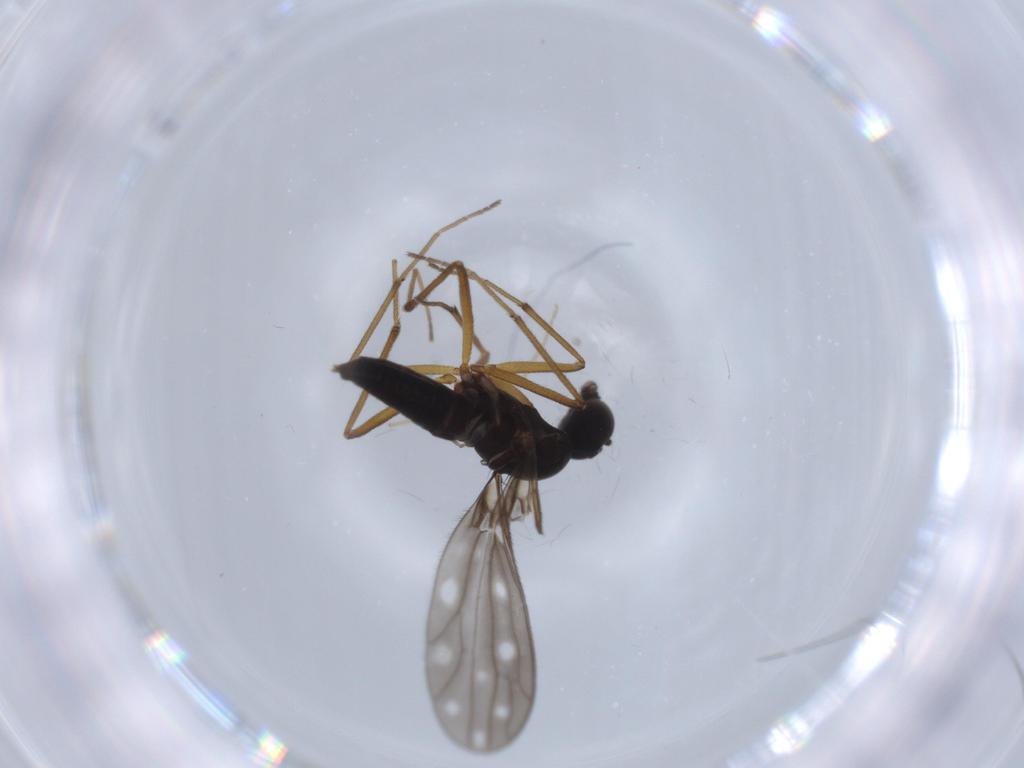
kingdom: Animalia
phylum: Arthropoda
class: Insecta
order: Diptera
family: Empididae
